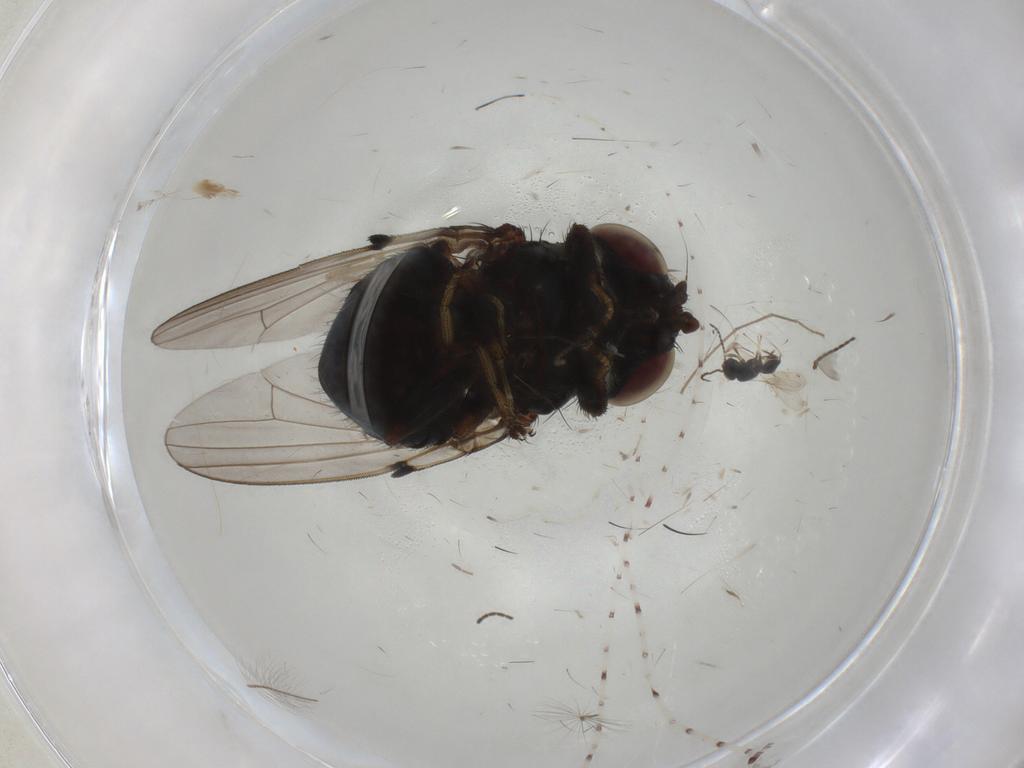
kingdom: Animalia
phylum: Arthropoda
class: Insecta
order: Diptera
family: Milichiidae
